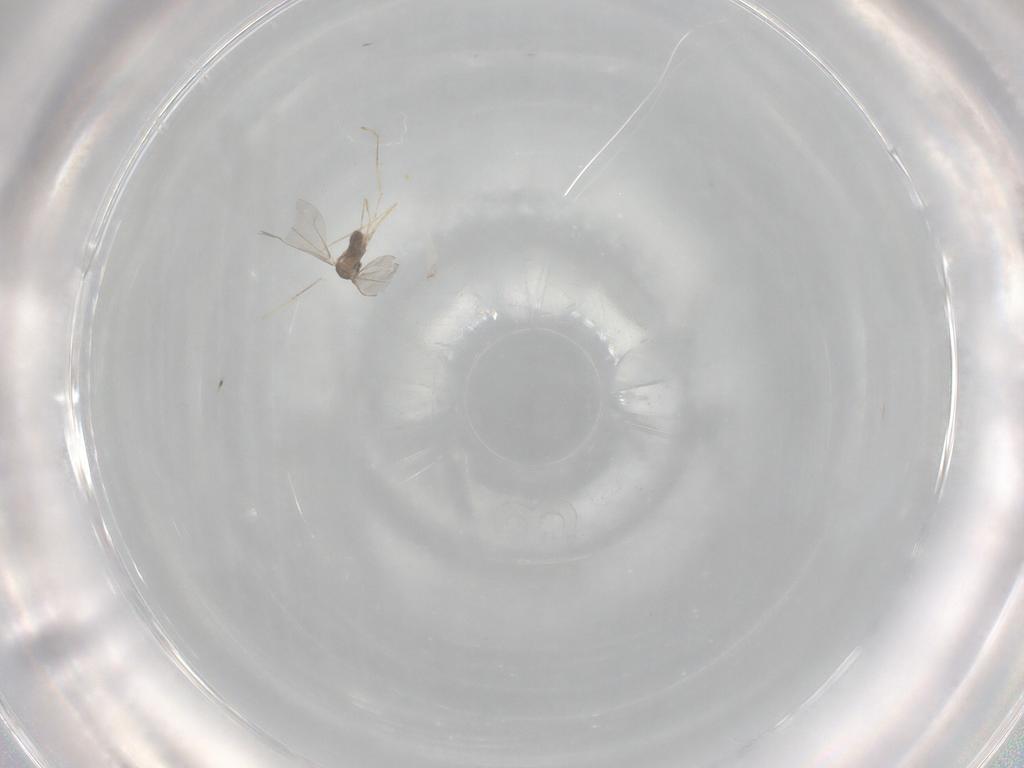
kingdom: Animalia
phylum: Arthropoda
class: Insecta
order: Diptera
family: Cecidomyiidae
